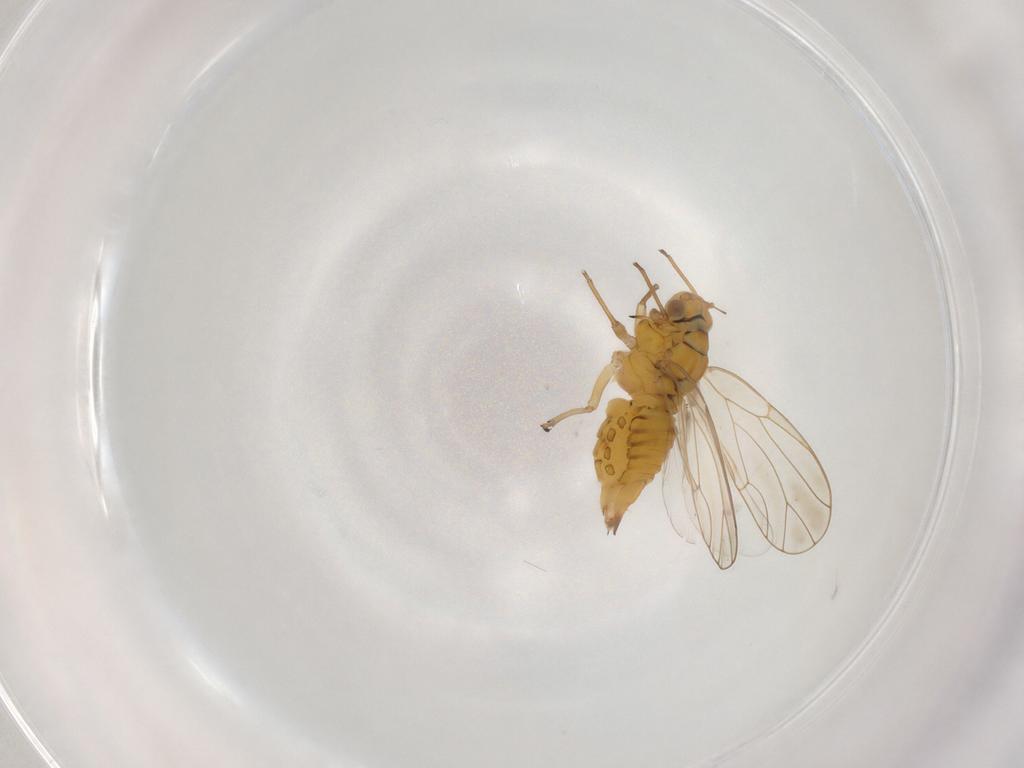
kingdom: Animalia
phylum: Arthropoda
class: Insecta
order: Hemiptera
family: Aleyrodidae
